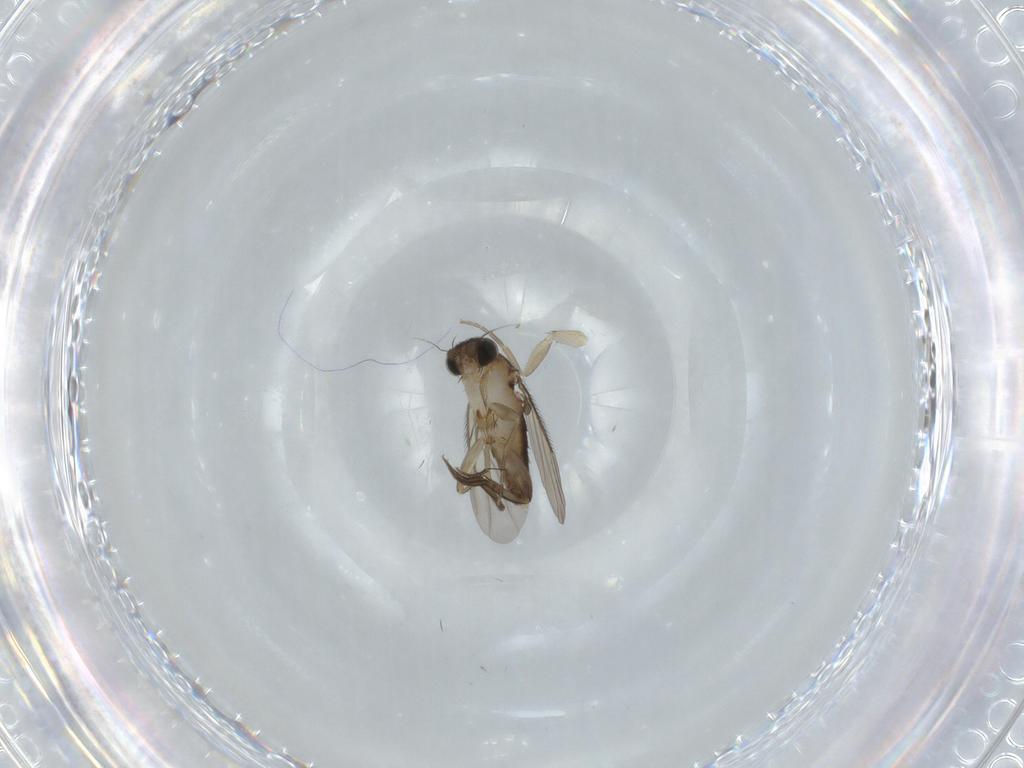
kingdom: Animalia
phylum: Arthropoda
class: Insecta
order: Diptera
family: Phoridae
